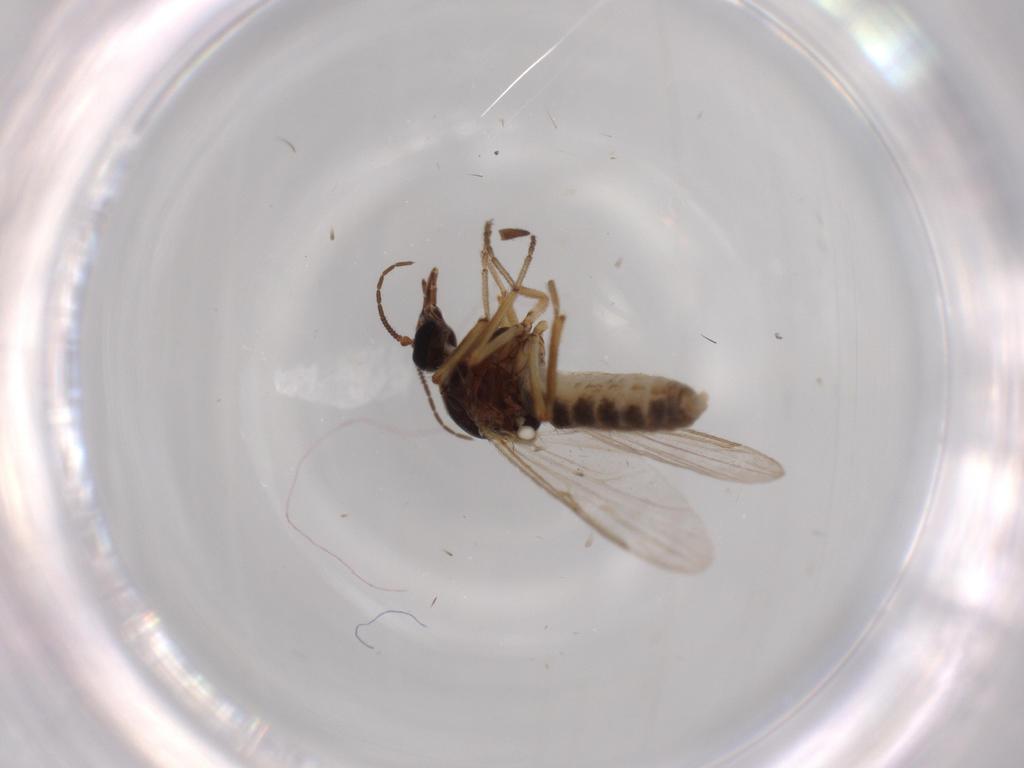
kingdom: Animalia
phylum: Arthropoda
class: Insecta
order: Diptera
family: Ceratopogonidae
